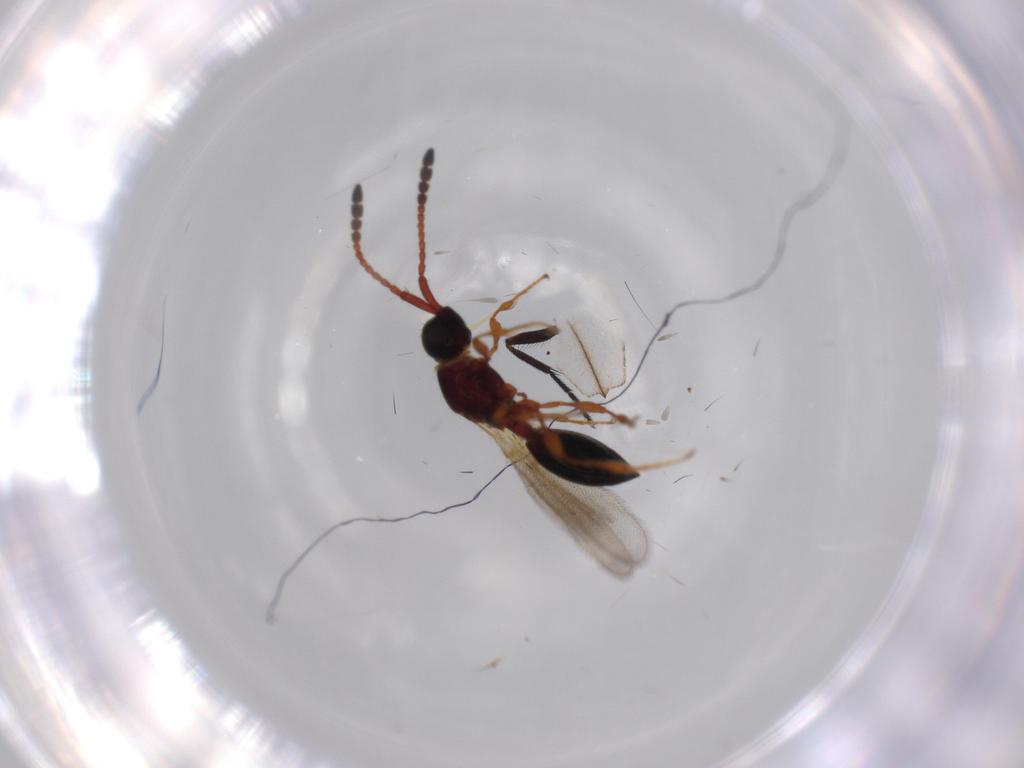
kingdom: Animalia
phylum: Arthropoda
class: Insecta
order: Hymenoptera
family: Diapriidae
